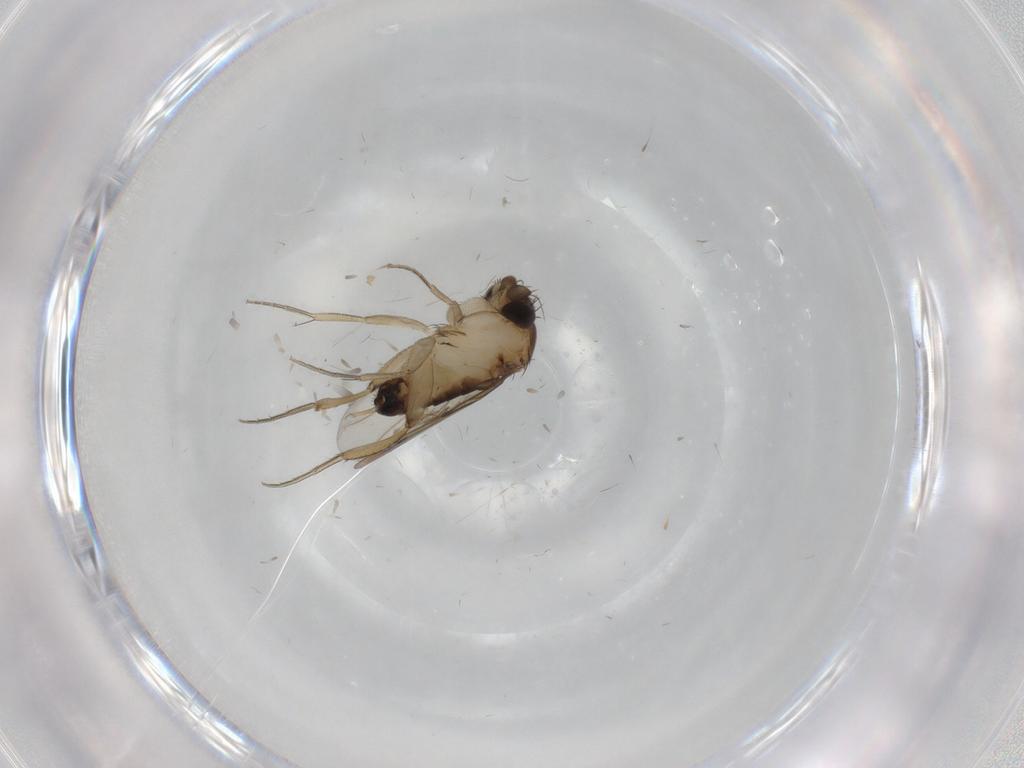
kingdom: Animalia
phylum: Arthropoda
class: Insecta
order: Diptera
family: Phoridae
